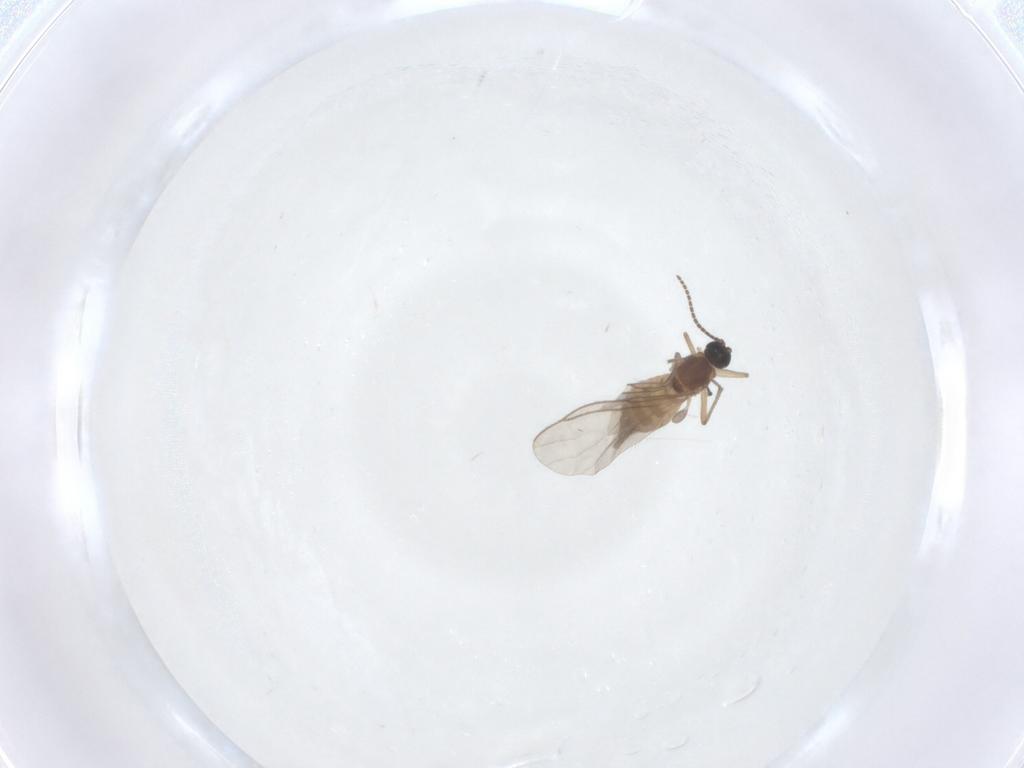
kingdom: Animalia
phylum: Arthropoda
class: Insecta
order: Diptera
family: Sciaridae
